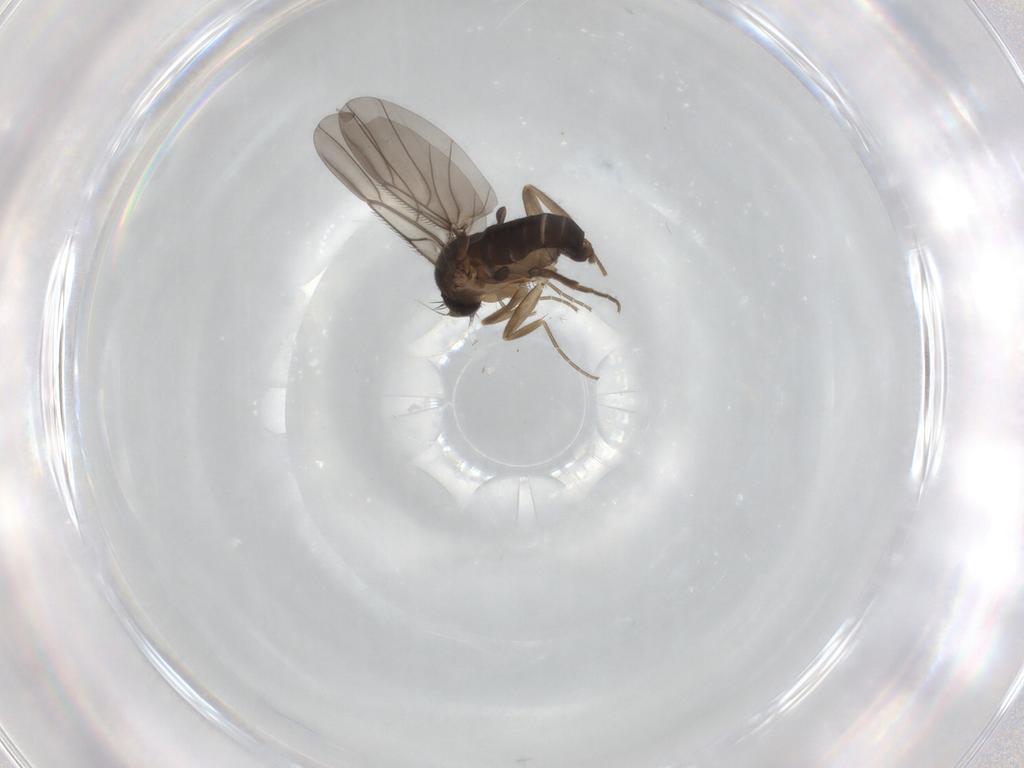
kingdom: Animalia
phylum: Arthropoda
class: Insecta
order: Diptera
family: Phoridae
